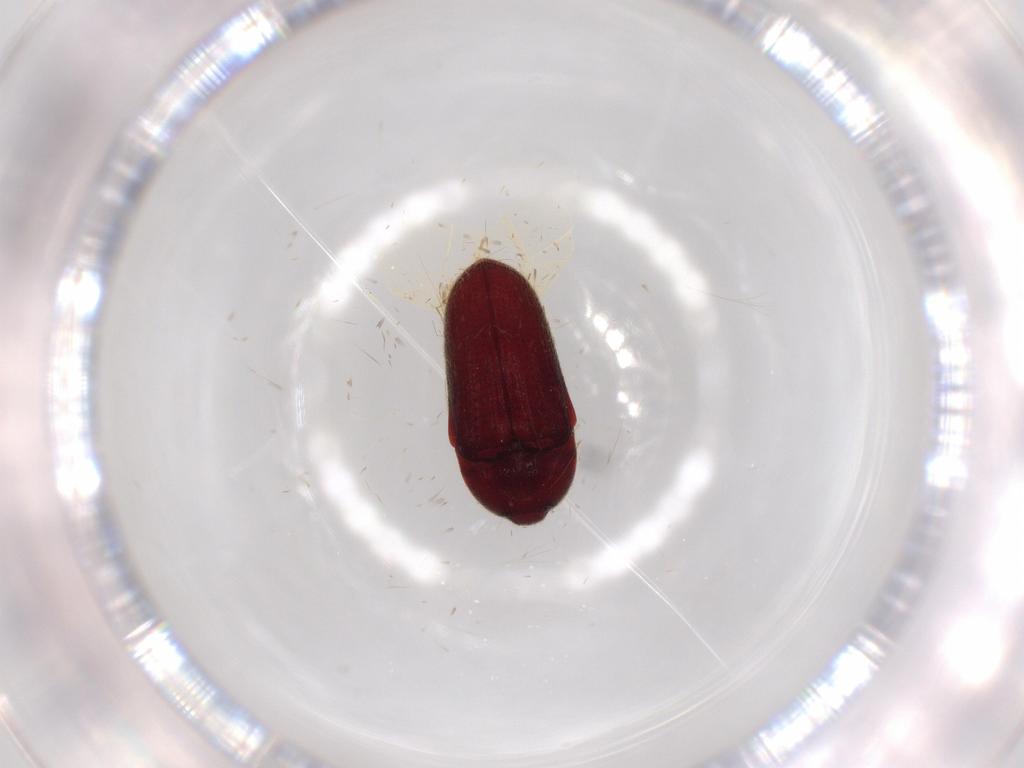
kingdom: Animalia
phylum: Arthropoda
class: Insecta
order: Coleoptera
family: Throscidae
